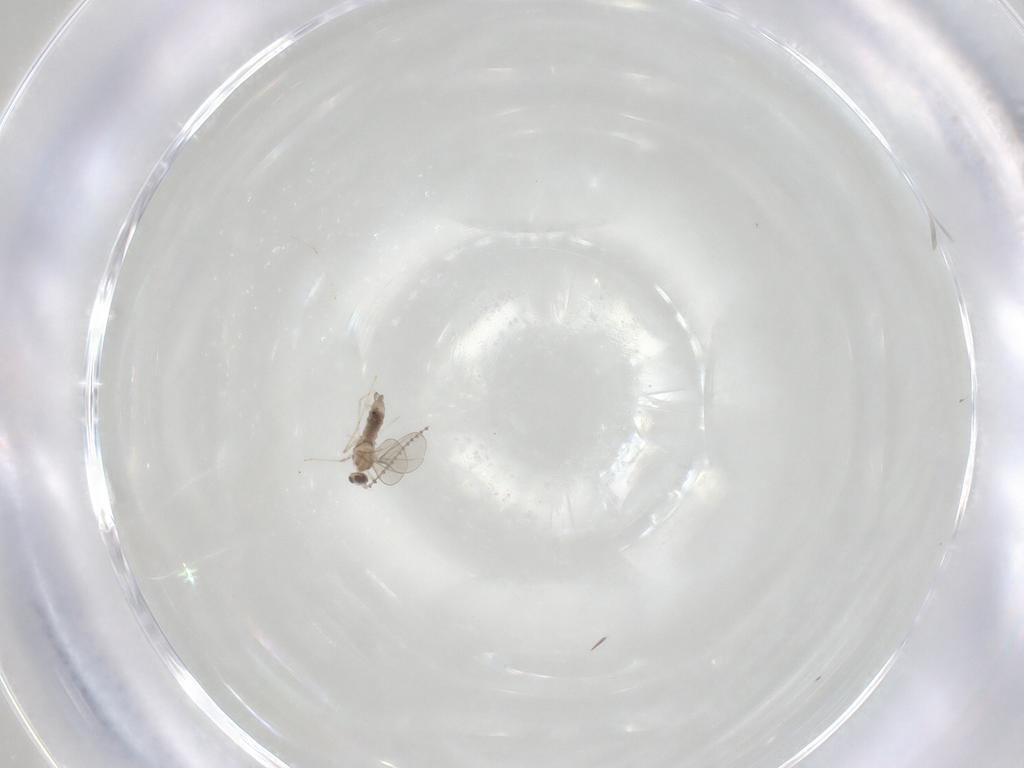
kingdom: Animalia
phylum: Arthropoda
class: Insecta
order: Diptera
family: Cecidomyiidae
